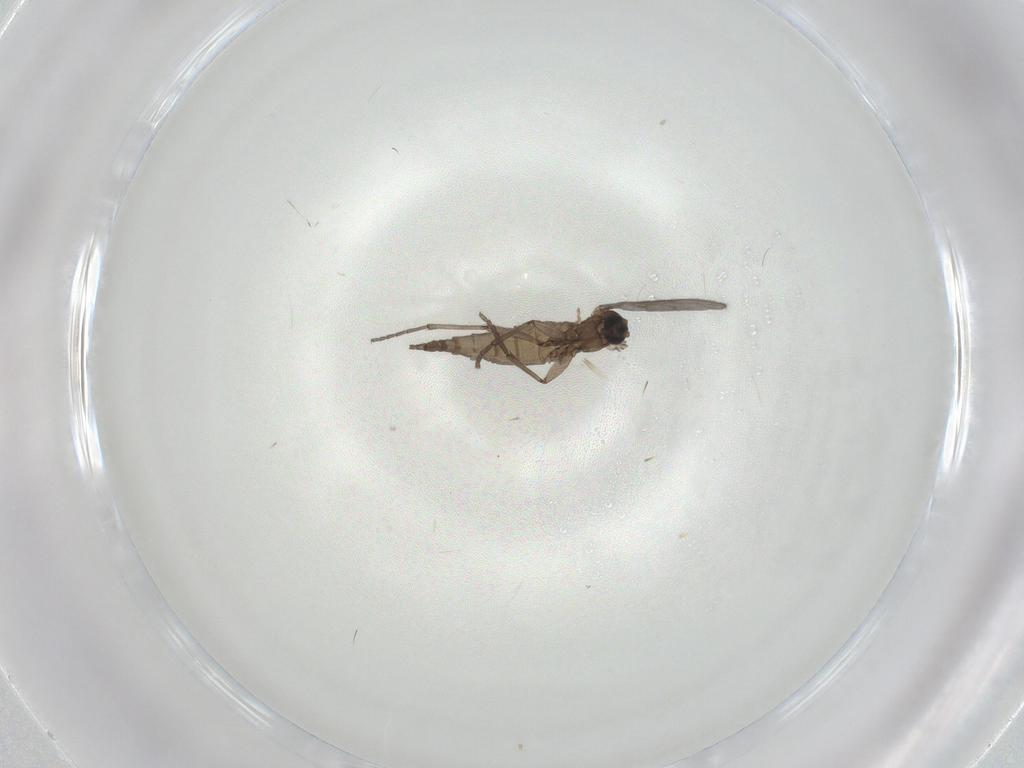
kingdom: Animalia
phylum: Arthropoda
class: Insecta
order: Diptera
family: Sciaridae
